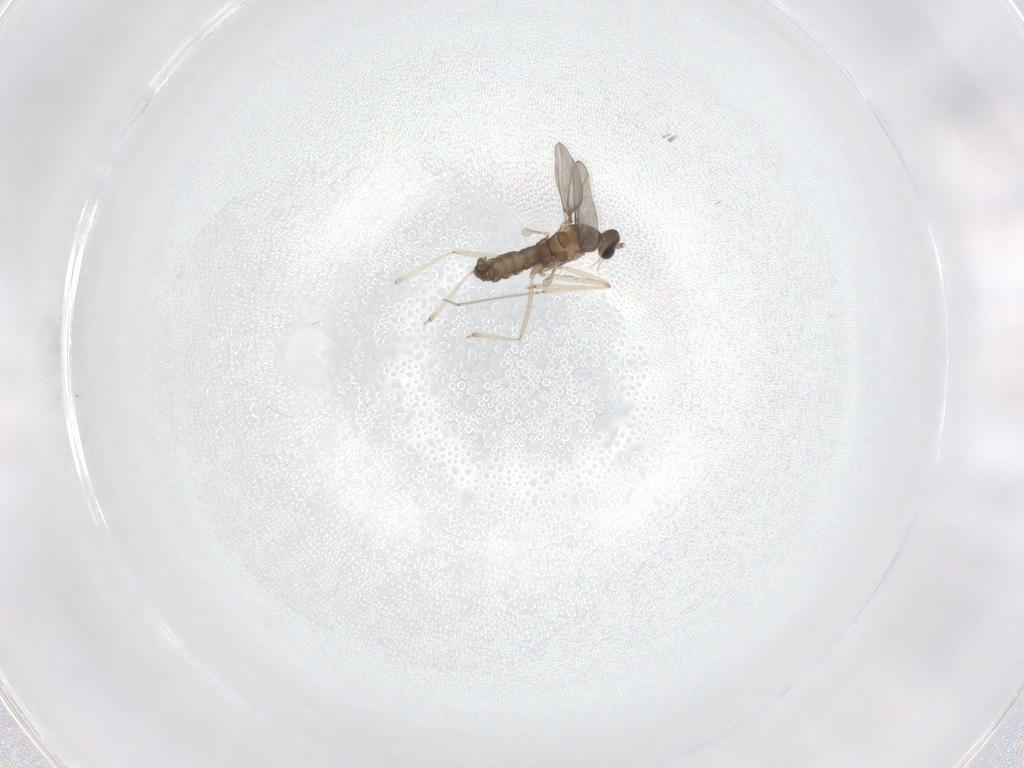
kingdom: Animalia
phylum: Arthropoda
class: Insecta
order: Diptera
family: Cecidomyiidae
